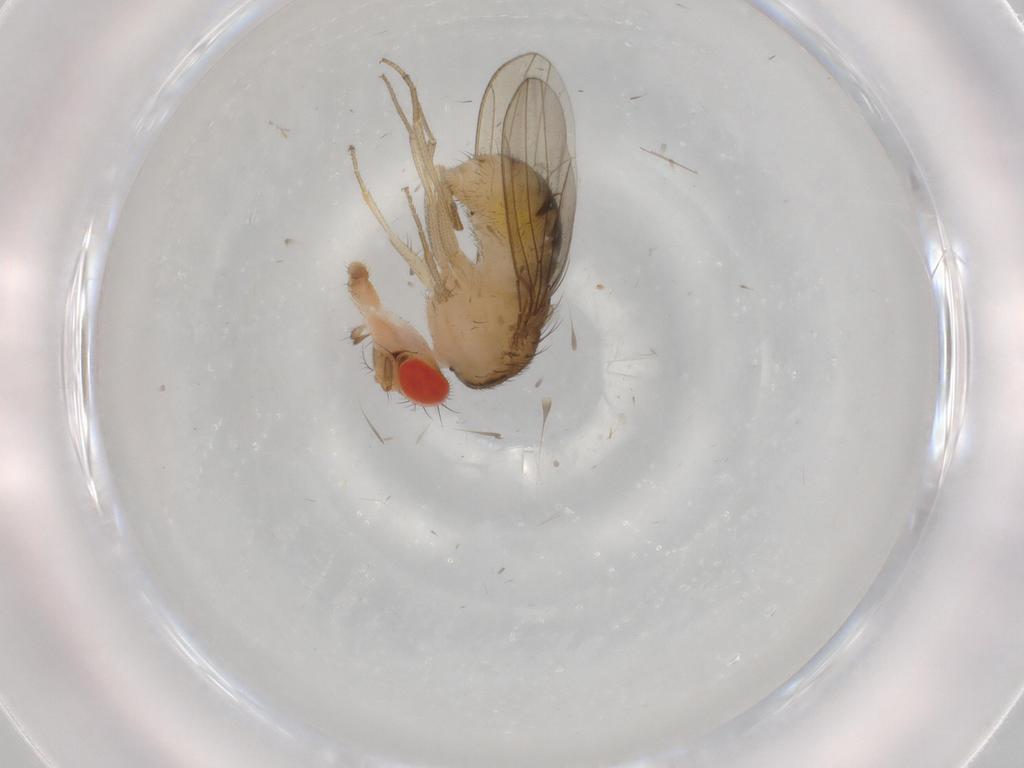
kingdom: Animalia
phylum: Arthropoda
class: Insecta
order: Diptera
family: Drosophilidae
